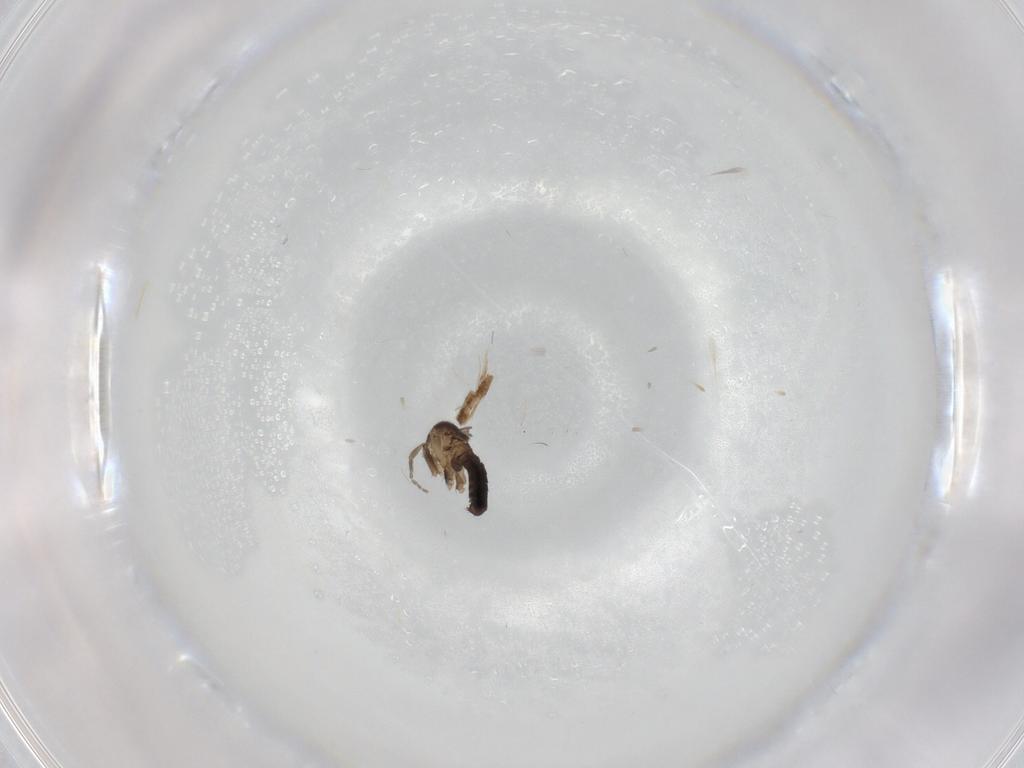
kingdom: Animalia
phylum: Arthropoda
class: Insecta
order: Diptera
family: Phoridae
